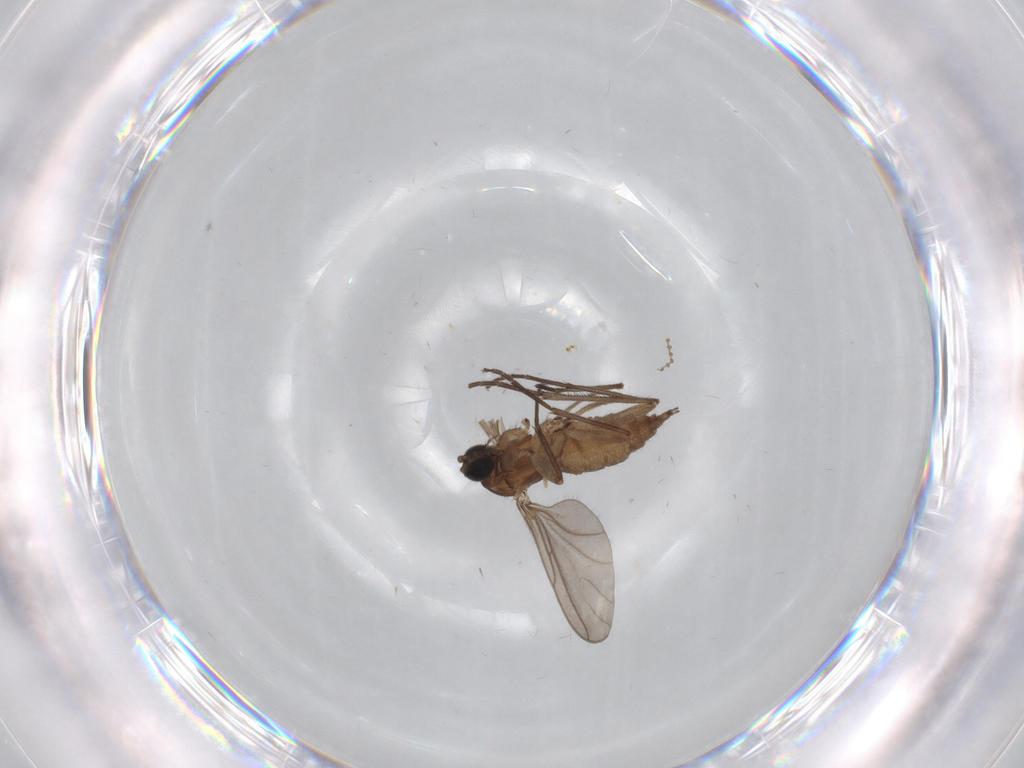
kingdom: Animalia
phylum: Arthropoda
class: Insecta
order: Diptera
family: Sciaridae
